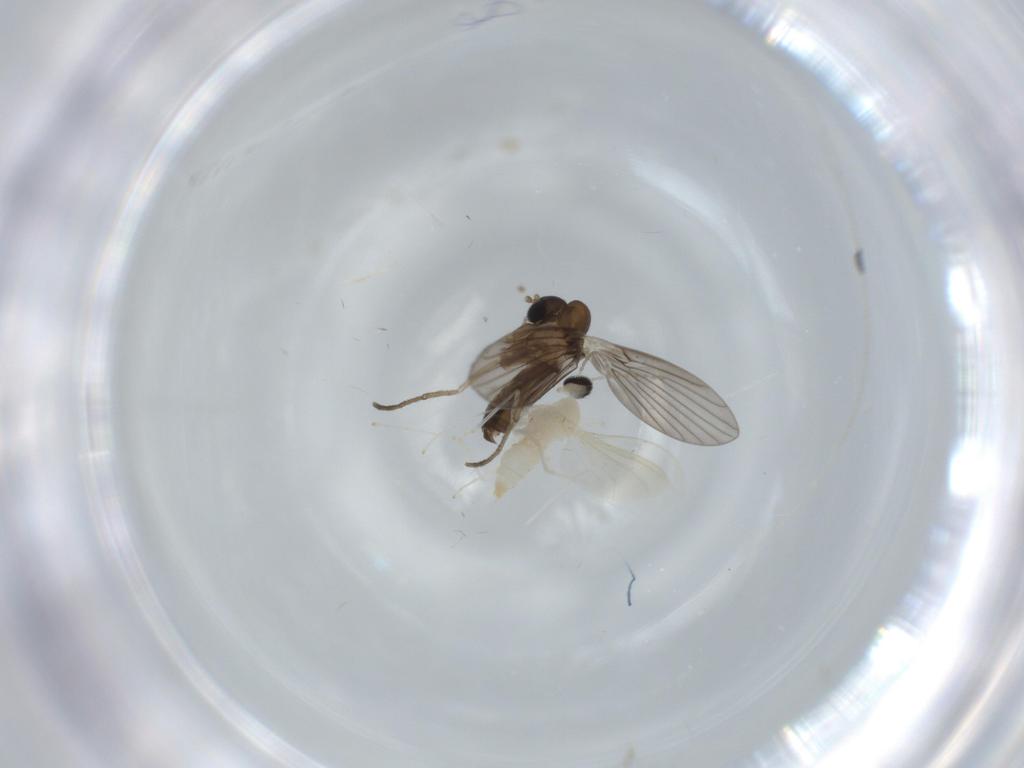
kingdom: Animalia
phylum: Arthropoda
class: Insecta
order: Diptera
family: Cecidomyiidae
